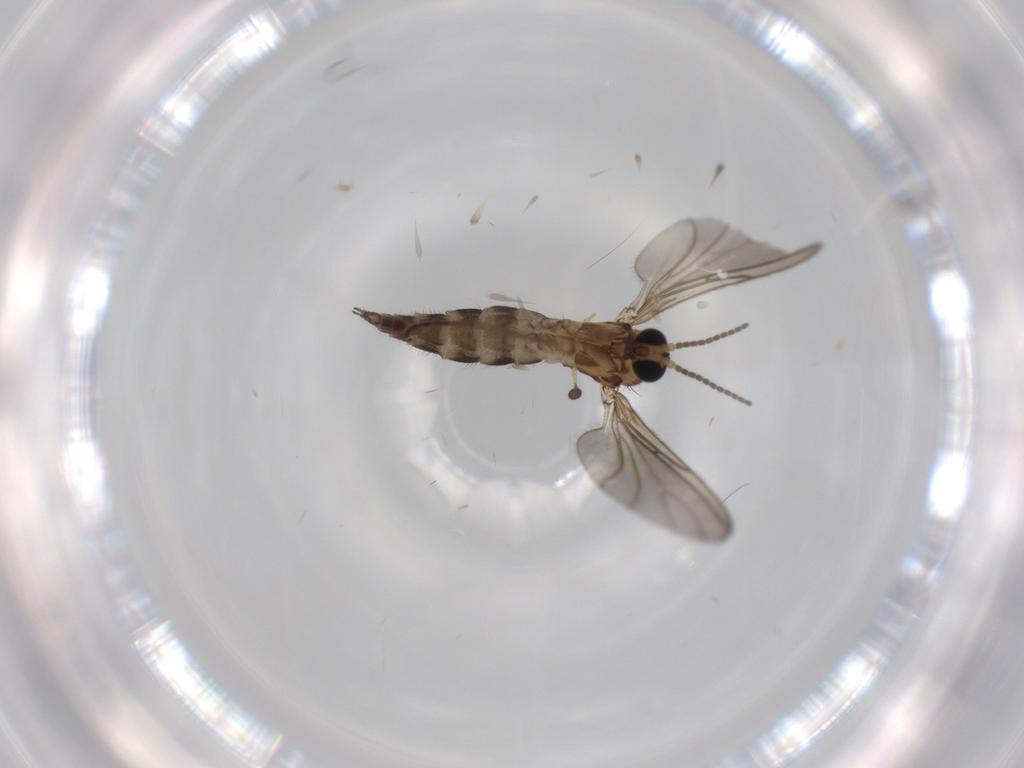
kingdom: Animalia
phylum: Arthropoda
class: Insecta
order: Diptera
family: Sciaridae
